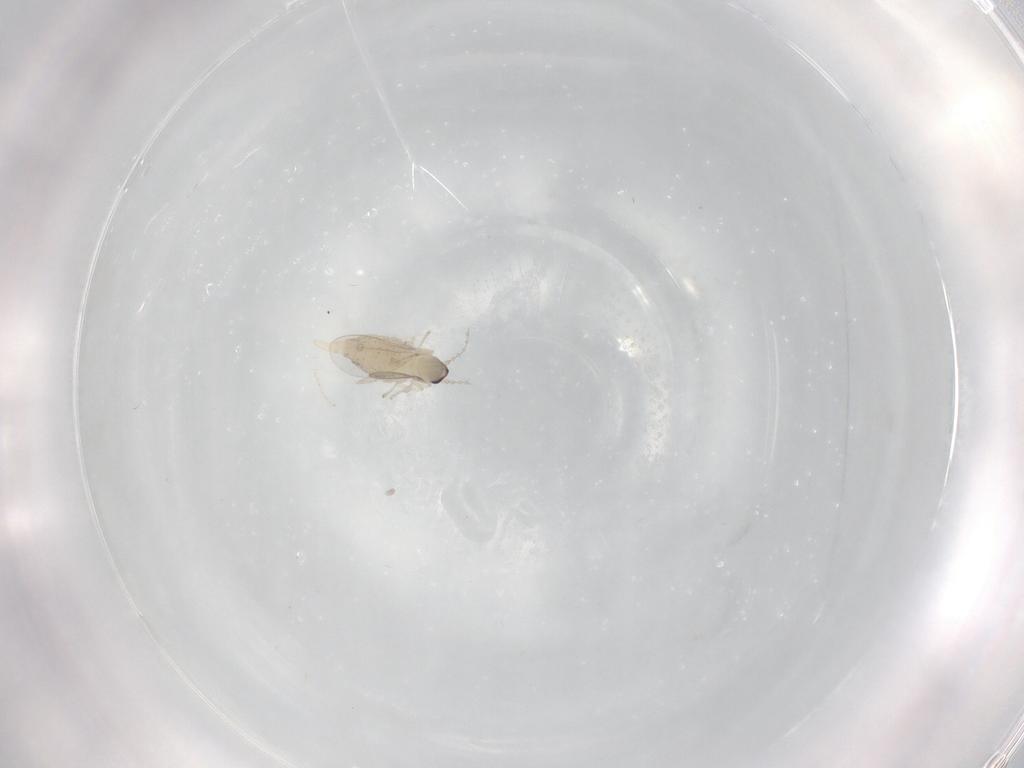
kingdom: Animalia
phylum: Arthropoda
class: Insecta
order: Diptera
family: Cecidomyiidae
